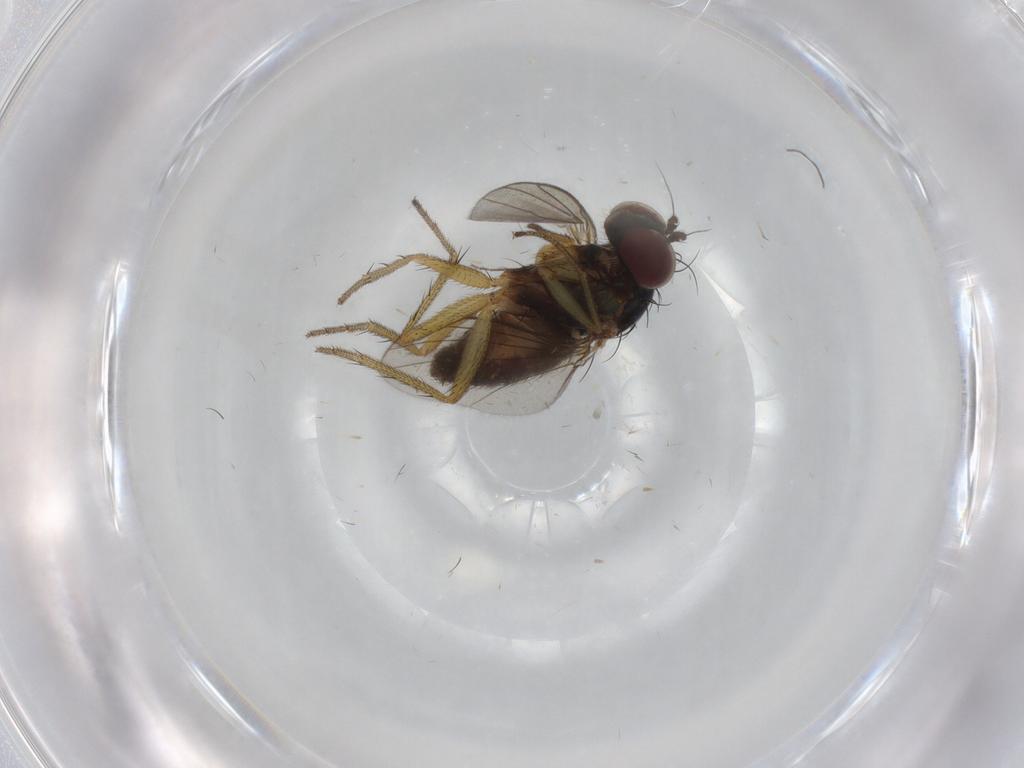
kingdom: Animalia
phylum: Arthropoda
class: Insecta
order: Diptera
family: Dolichopodidae
